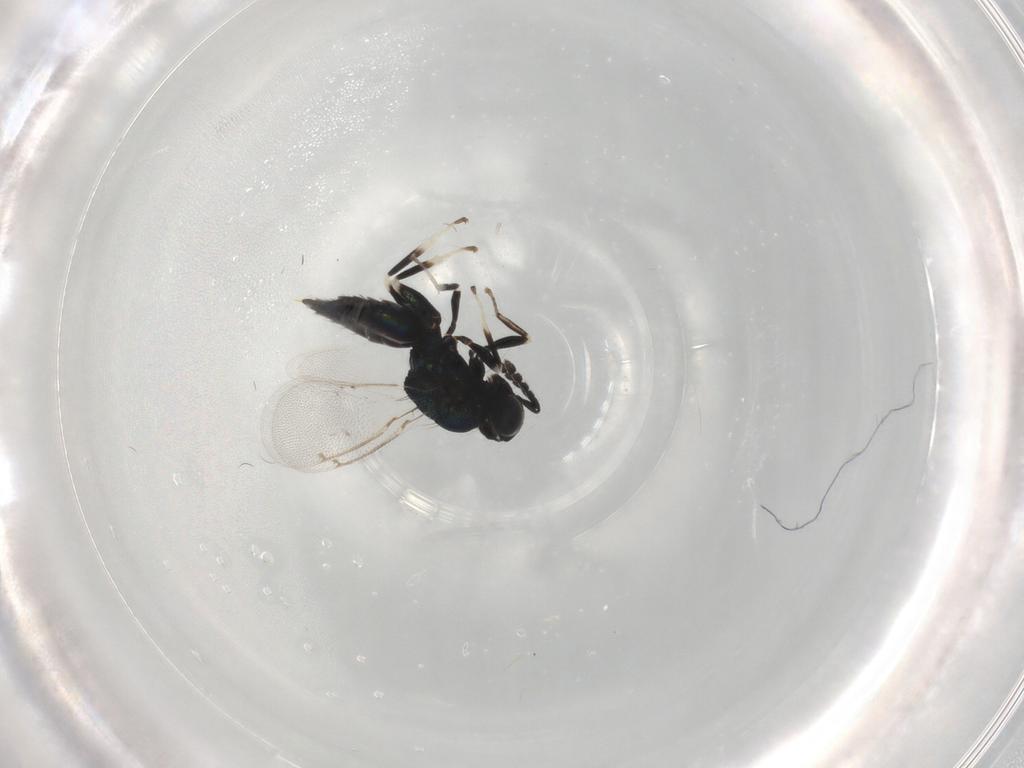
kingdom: Animalia
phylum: Arthropoda
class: Insecta
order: Hymenoptera
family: Eulophidae
